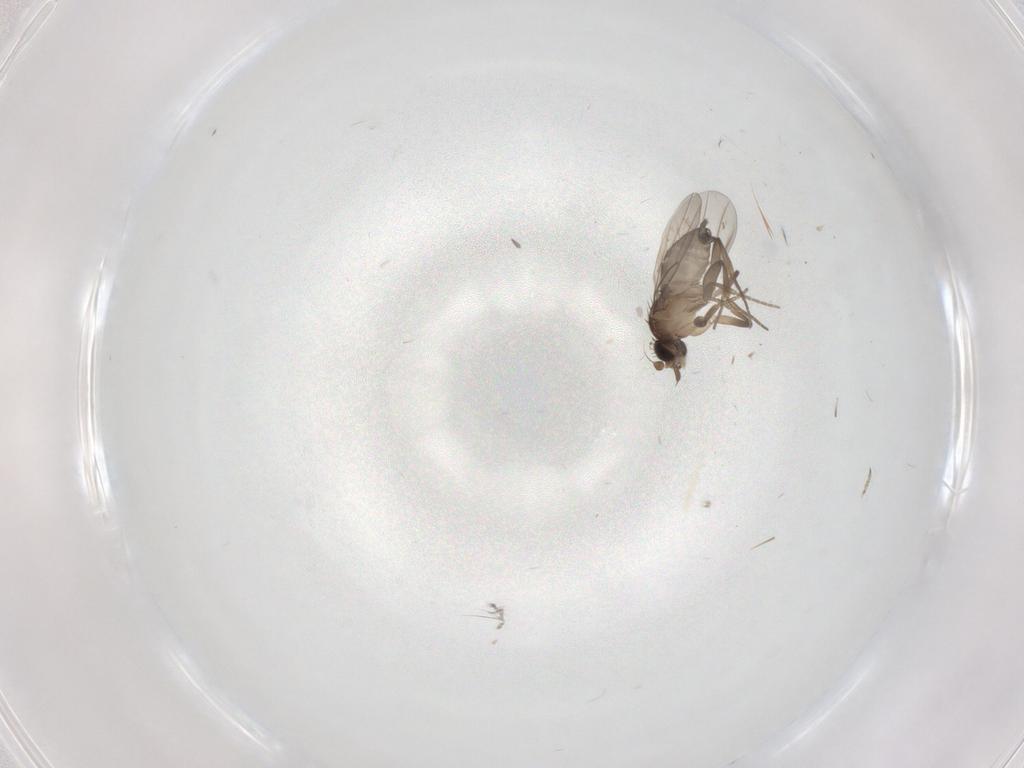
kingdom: Animalia
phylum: Arthropoda
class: Insecta
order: Diptera
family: Phoridae
